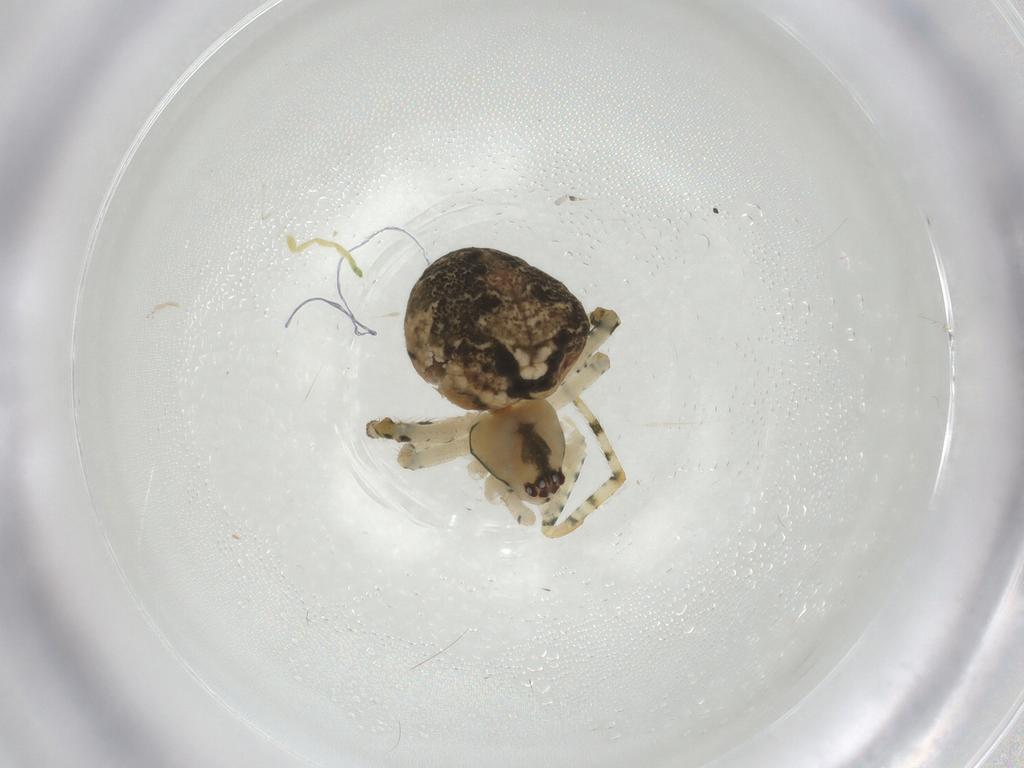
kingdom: Animalia
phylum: Arthropoda
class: Arachnida
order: Araneae
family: Theridiidae
